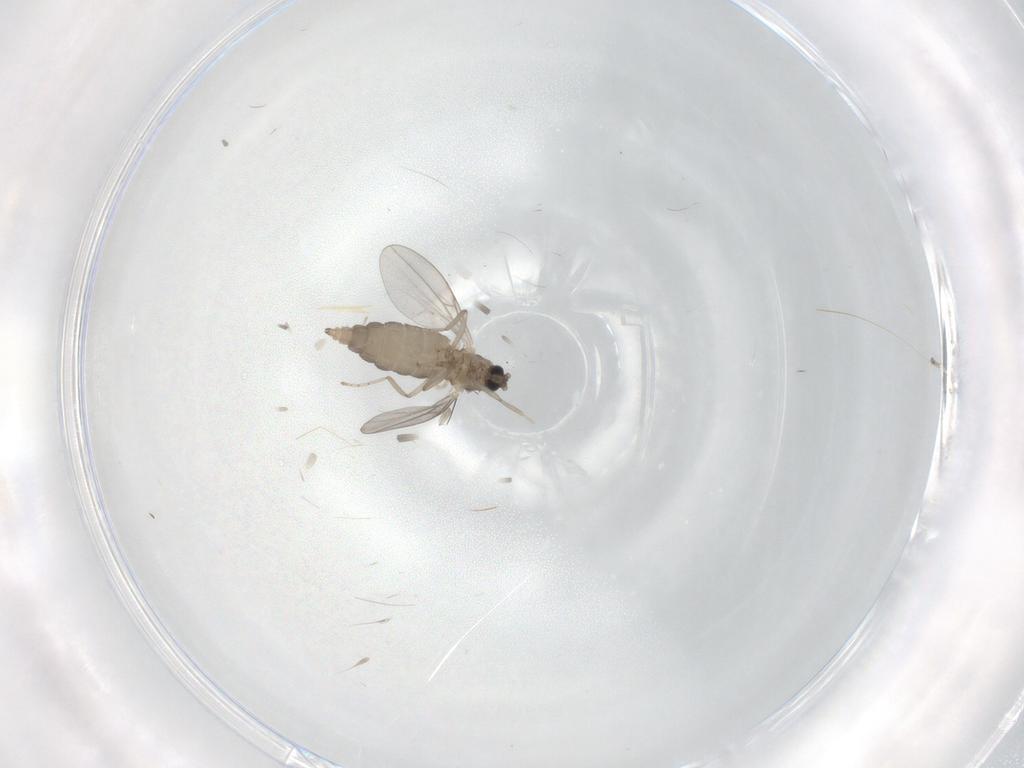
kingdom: Animalia
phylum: Arthropoda
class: Insecta
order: Diptera
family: Cecidomyiidae
